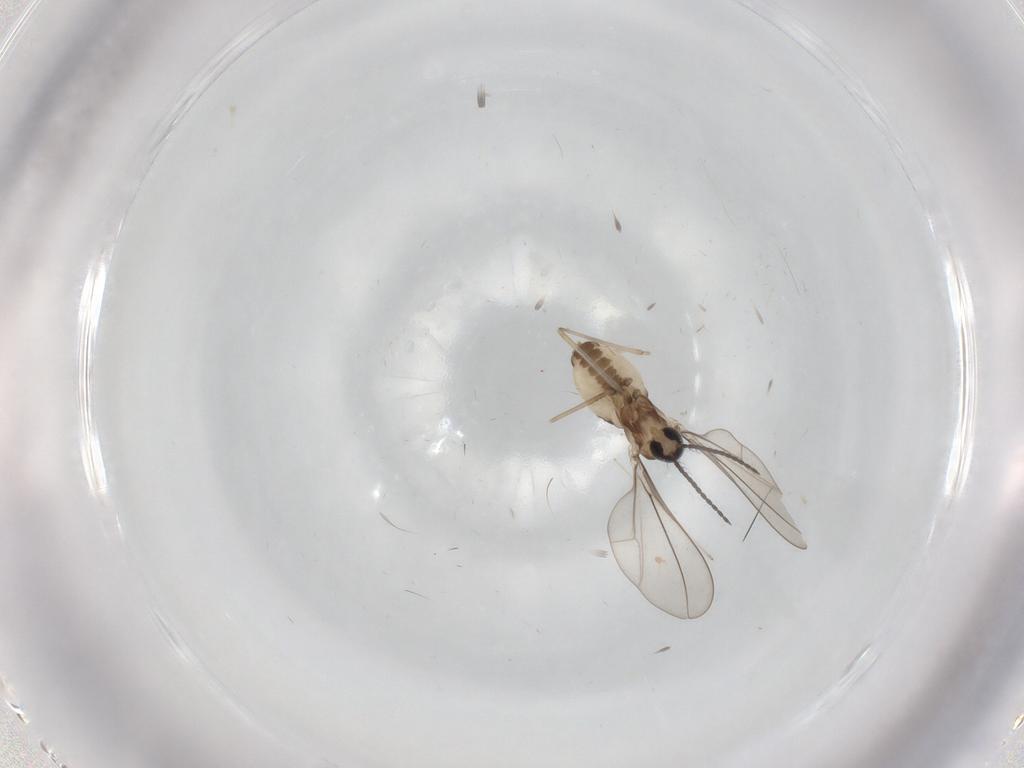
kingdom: Animalia
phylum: Arthropoda
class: Insecta
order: Diptera
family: Cecidomyiidae
